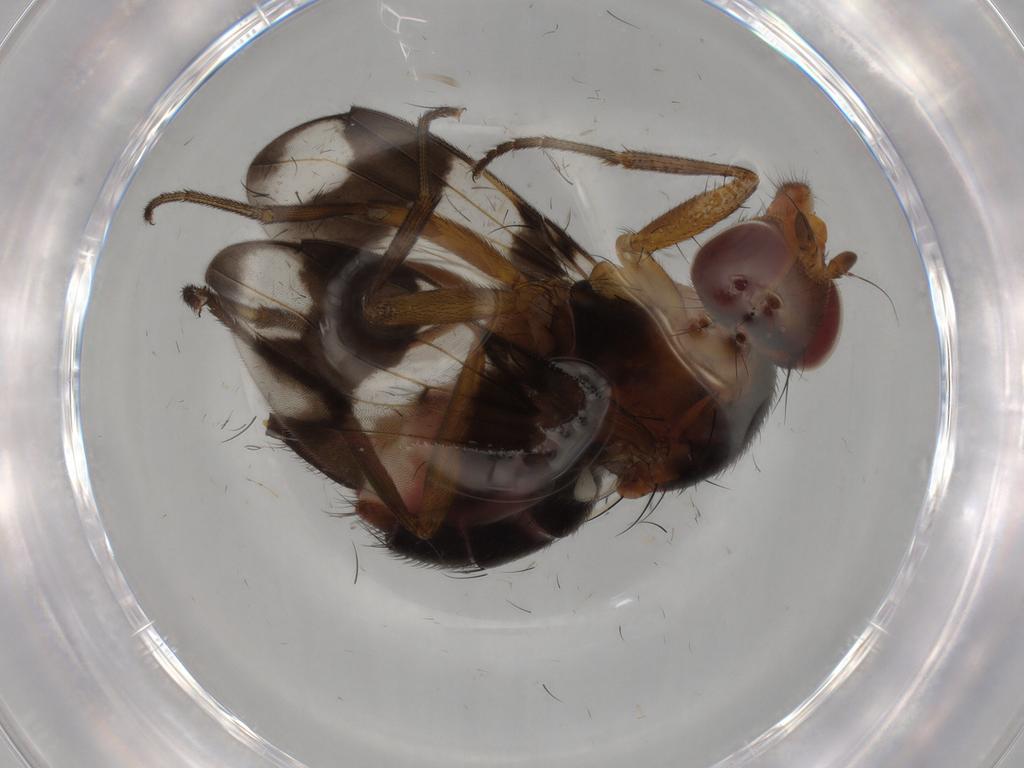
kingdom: Animalia
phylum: Arthropoda
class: Insecta
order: Diptera
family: Richardiidae
